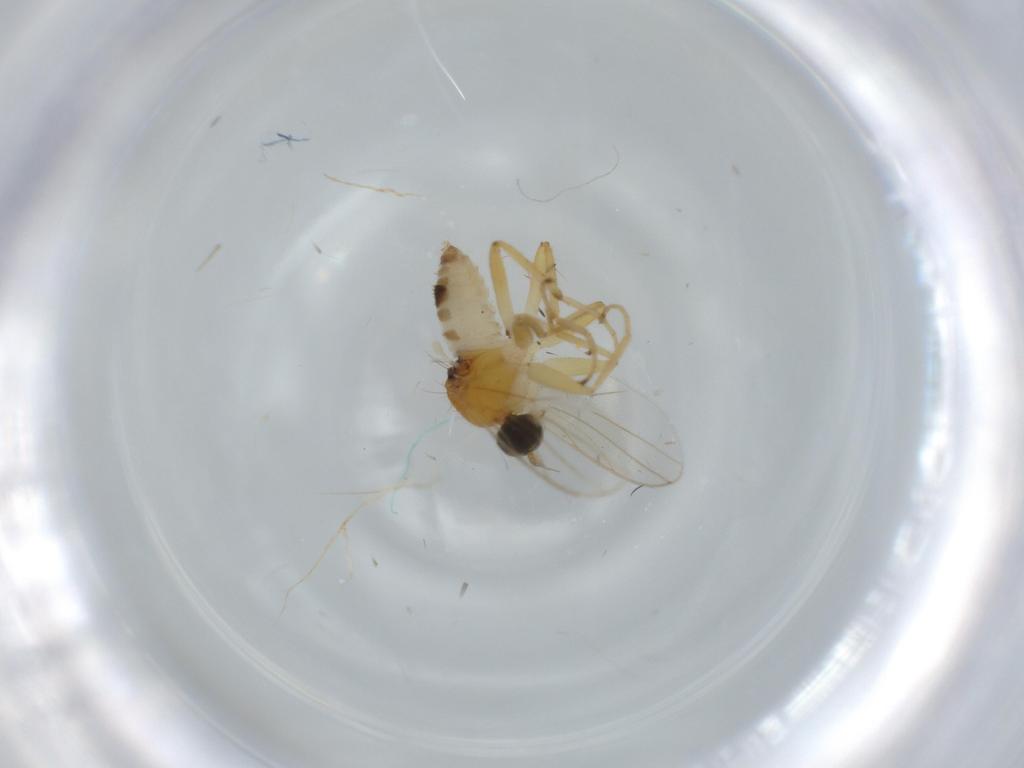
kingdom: Animalia
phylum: Arthropoda
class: Insecta
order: Diptera
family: Hybotidae
